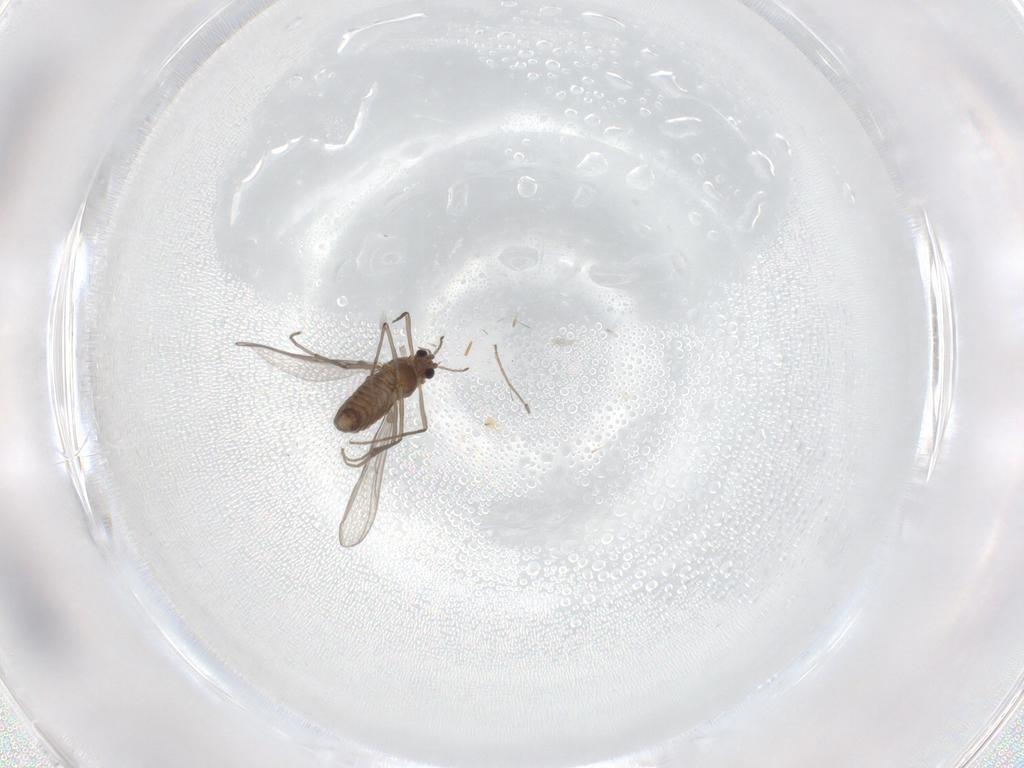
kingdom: Animalia
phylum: Arthropoda
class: Insecta
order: Diptera
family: Chironomidae
